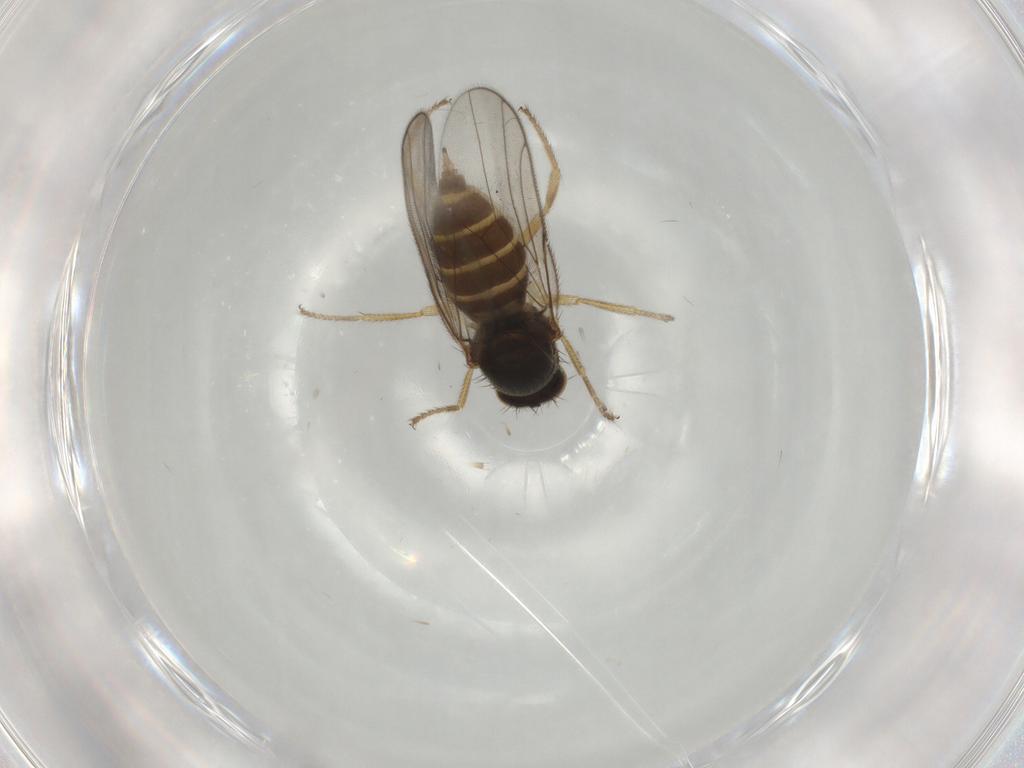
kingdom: Animalia
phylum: Arthropoda
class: Insecta
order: Diptera
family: Chloropidae
